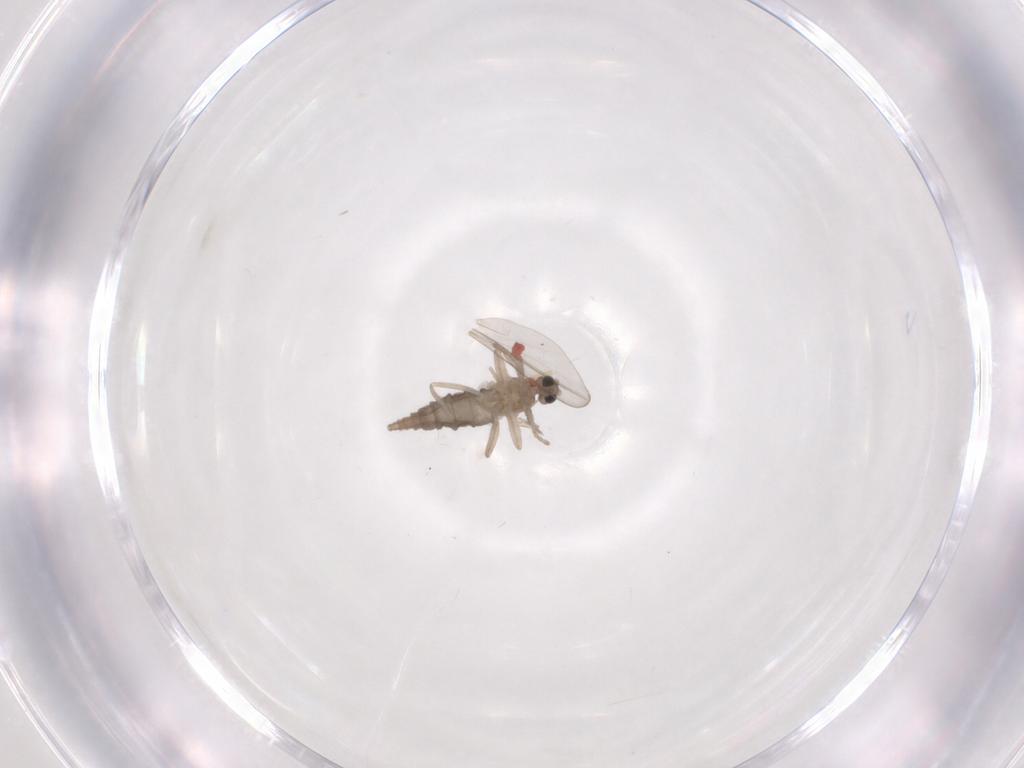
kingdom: Animalia
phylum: Arthropoda
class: Insecta
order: Diptera
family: Cecidomyiidae
